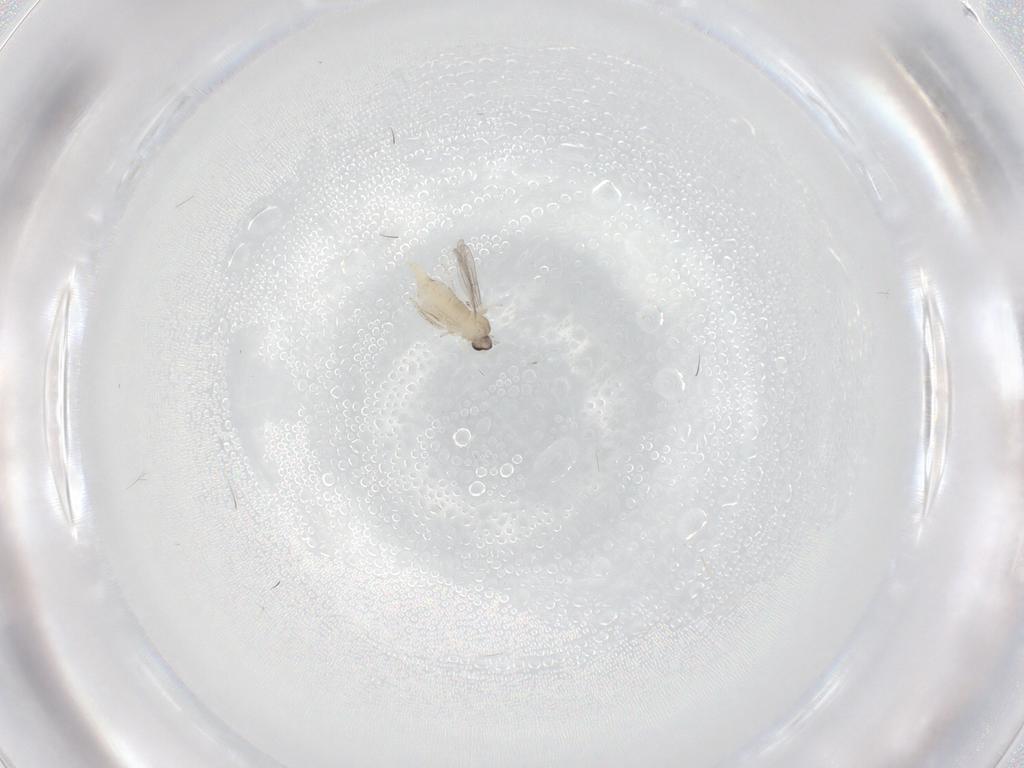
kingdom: Animalia
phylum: Arthropoda
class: Insecta
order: Diptera
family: Cecidomyiidae
